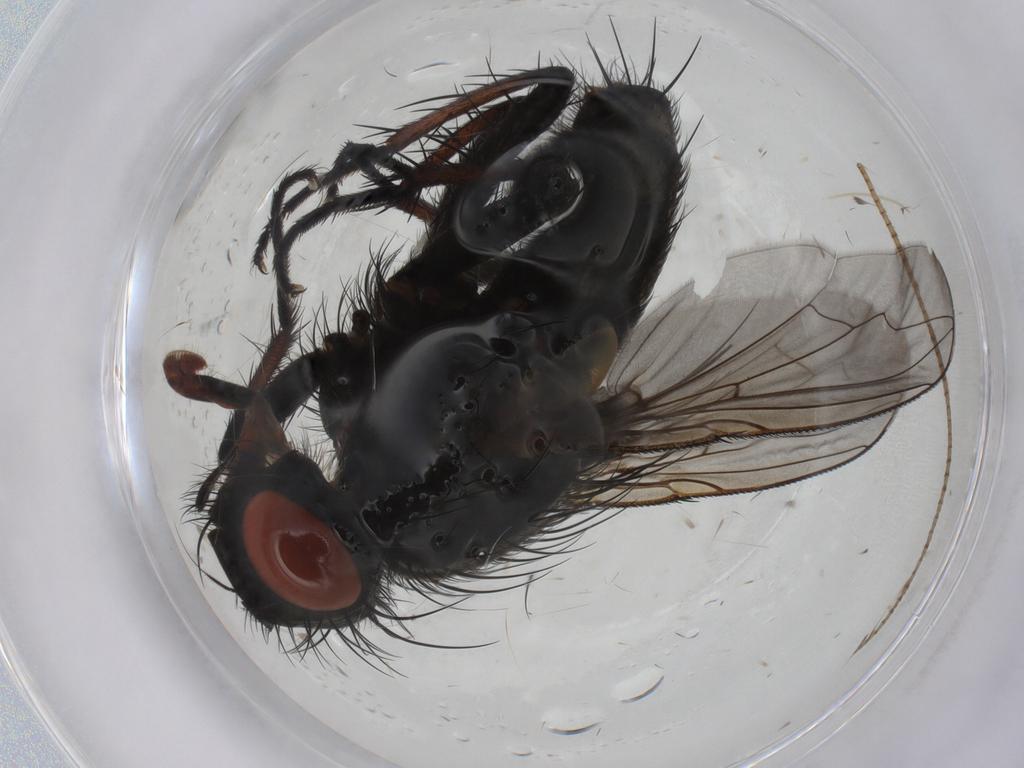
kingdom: Animalia
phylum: Arthropoda
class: Insecta
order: Diptera
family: Sarcophagidae
